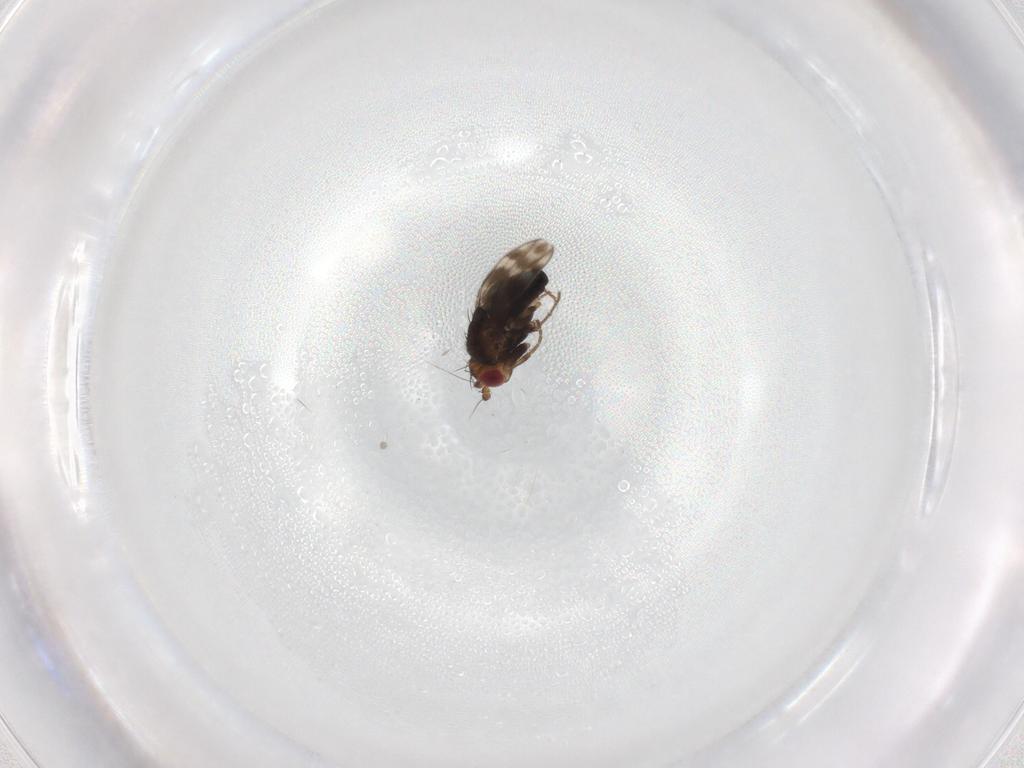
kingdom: Animalia
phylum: Arthropoda
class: Insecta
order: Diptera
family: Sphaeroceridae
